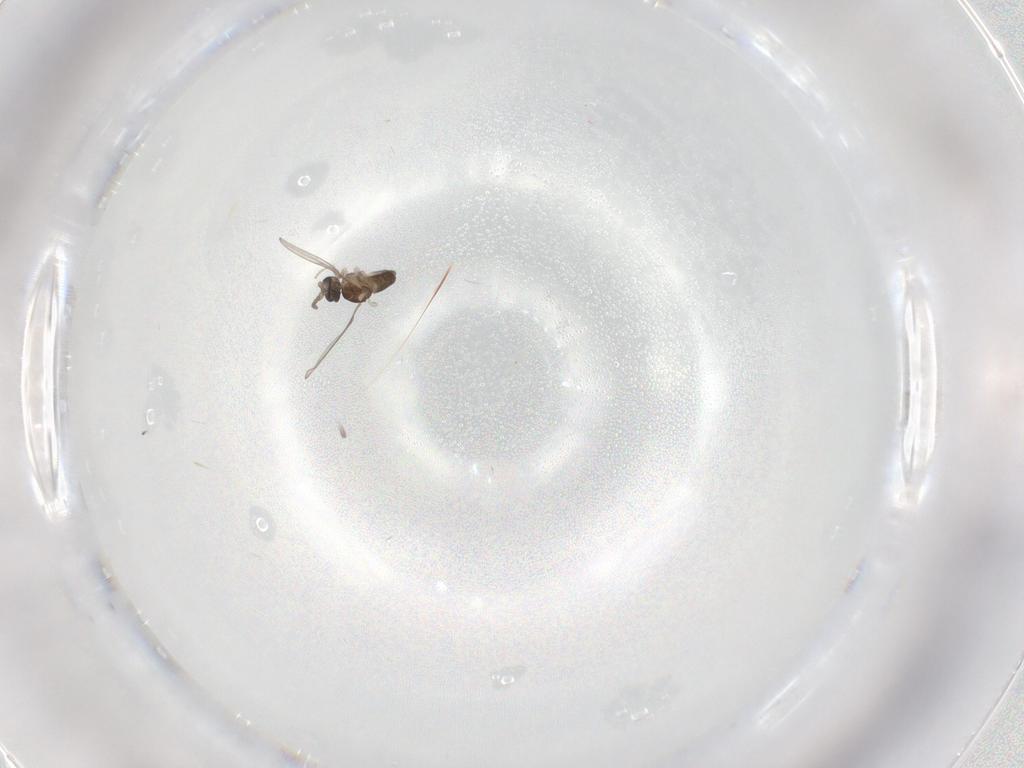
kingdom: Animalia
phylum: Arthropoda
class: Insecta
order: Diptera
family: Cecidomyiidae
